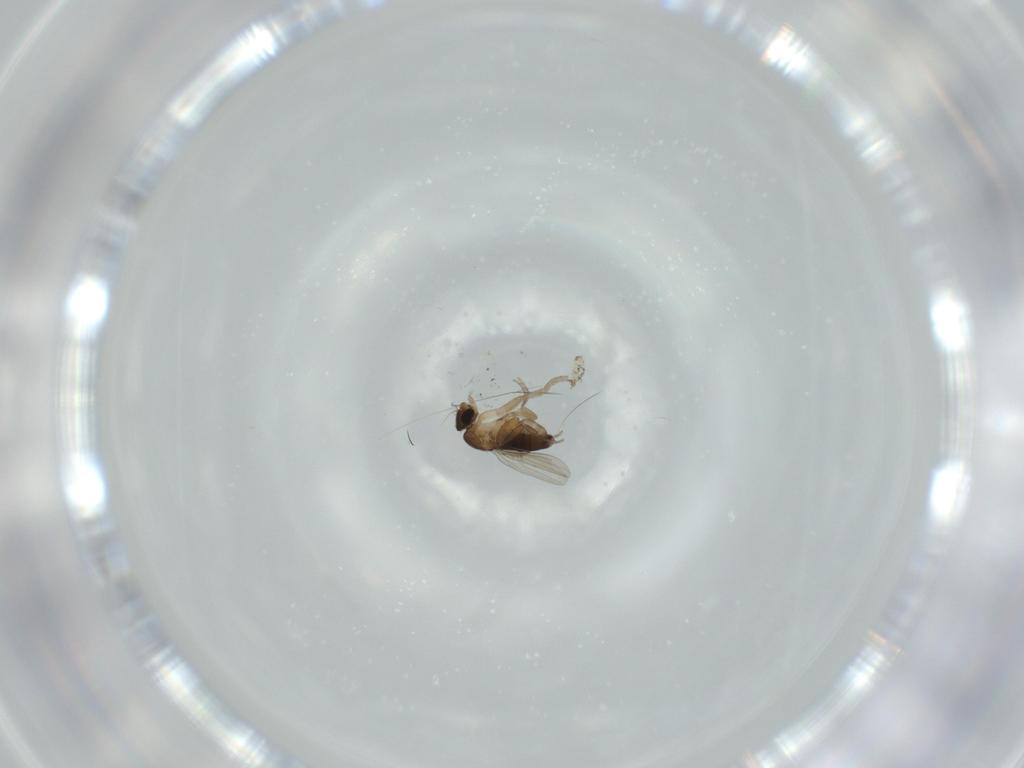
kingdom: Animalia
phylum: Arthropoda
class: Insecta
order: Diptera
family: Phoridae
